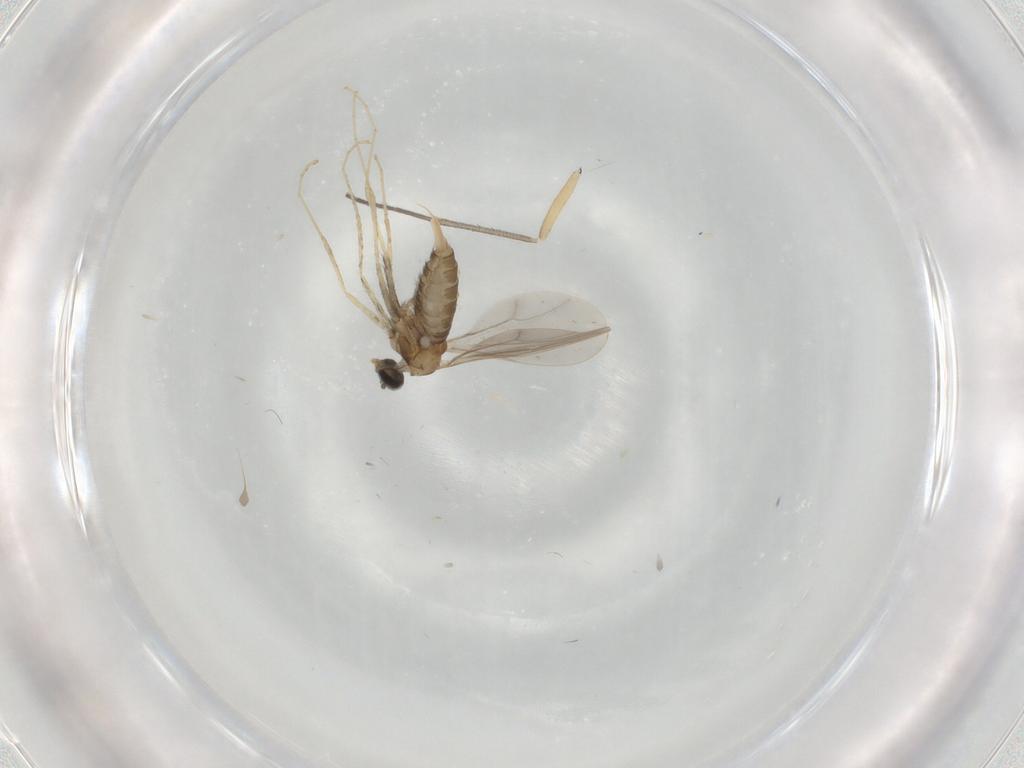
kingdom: Animalia
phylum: Arthropoda
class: Insecta
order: Diptera
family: Cecidomyiidae
